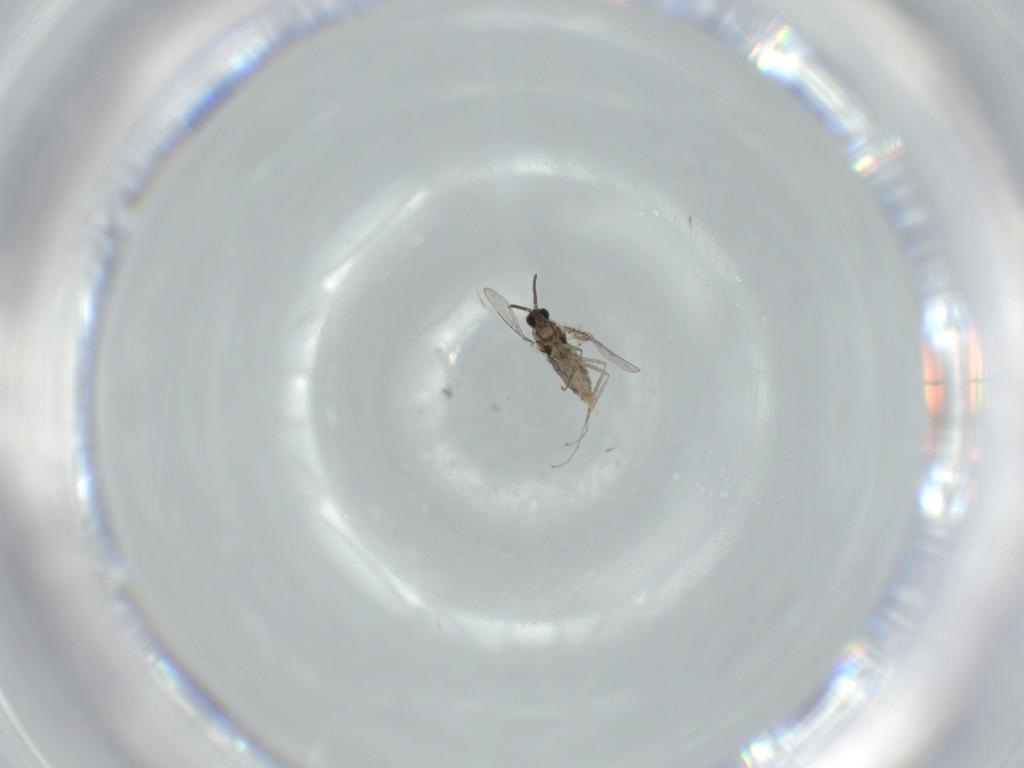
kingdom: Animalia
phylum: Arthropoda
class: Insecta
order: Diptera
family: Cecidomyiidae
